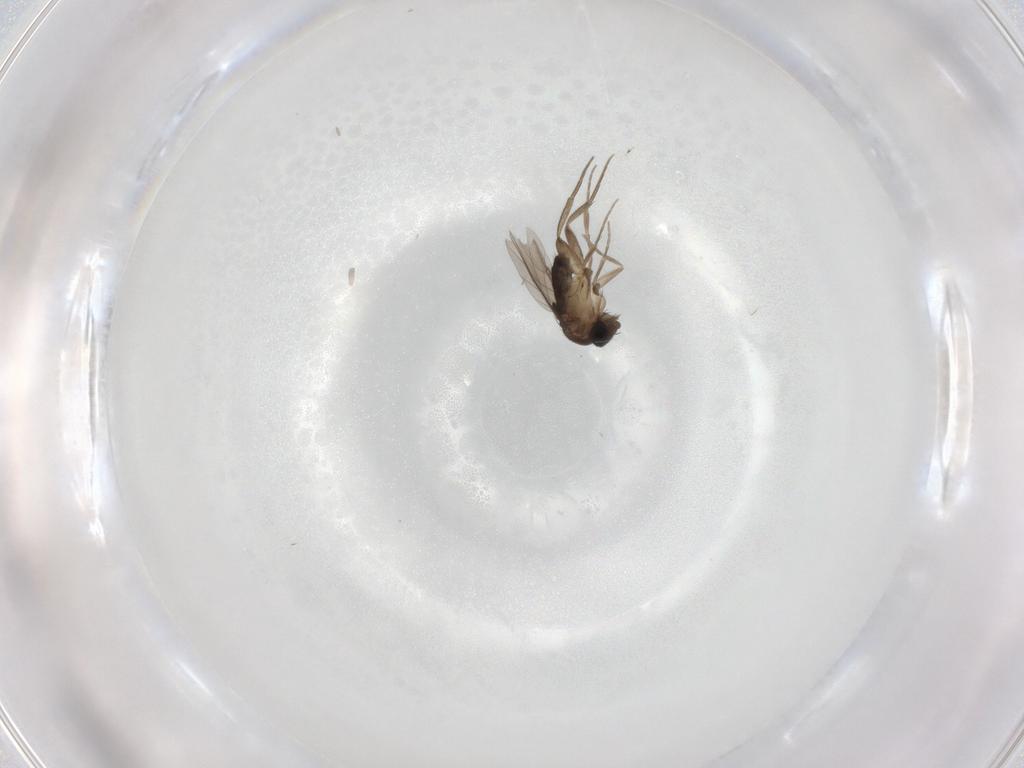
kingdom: Animalia
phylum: Arthropoda
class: Insecta
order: Diptera
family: Phoridae
